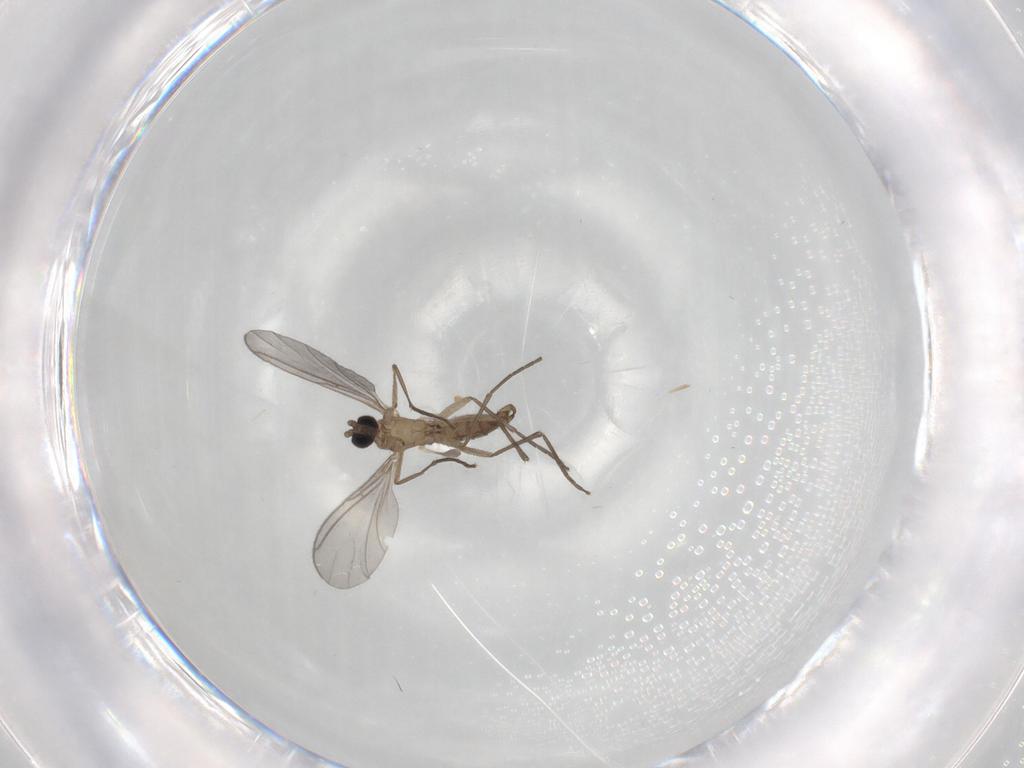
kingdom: Animalia
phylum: Arthropoda
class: Insecta
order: Diptera
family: Sciaridae
